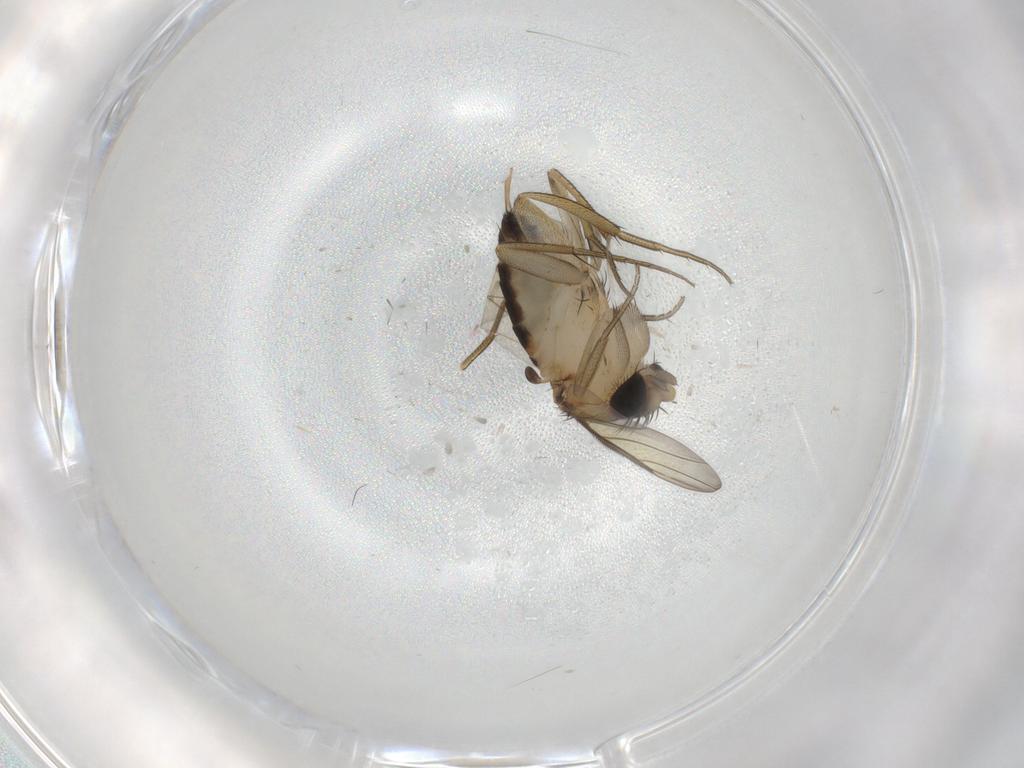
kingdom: Animalia
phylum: Arthropoda
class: Insecta
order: Diptera
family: Phoridae
